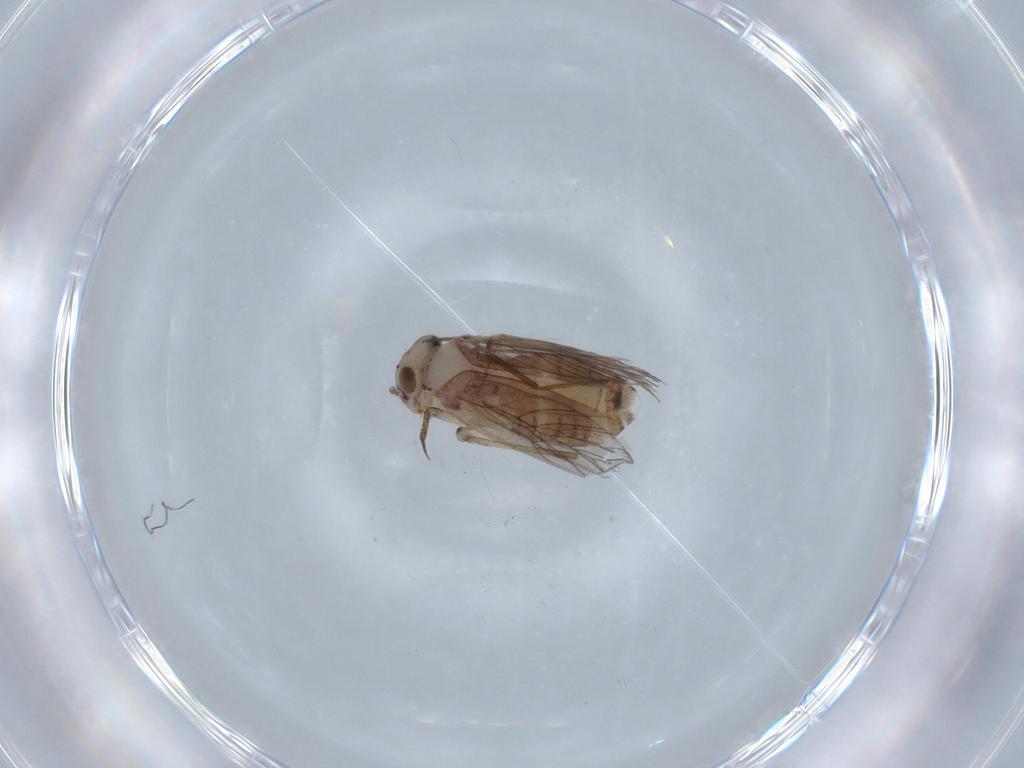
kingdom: Animalia
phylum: Arthropoda
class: Insecta
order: Psocodea
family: Lepidopsocidae
